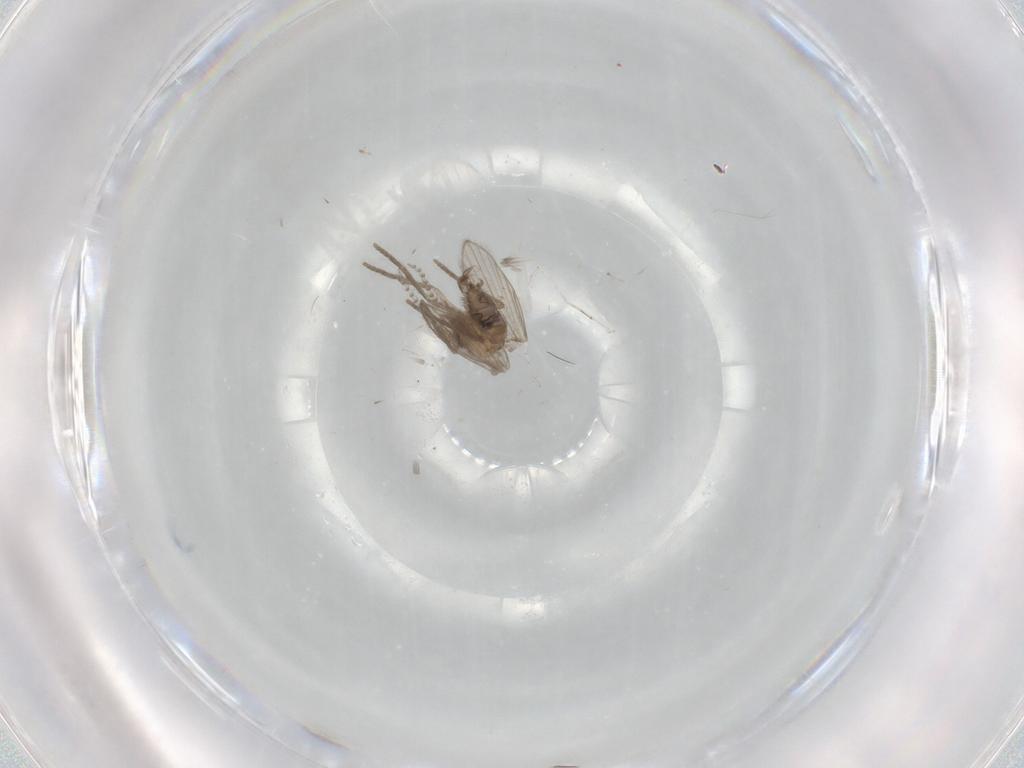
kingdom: Animalia
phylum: Arthropoda
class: Insecta
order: Diptera
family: Psychodidae
